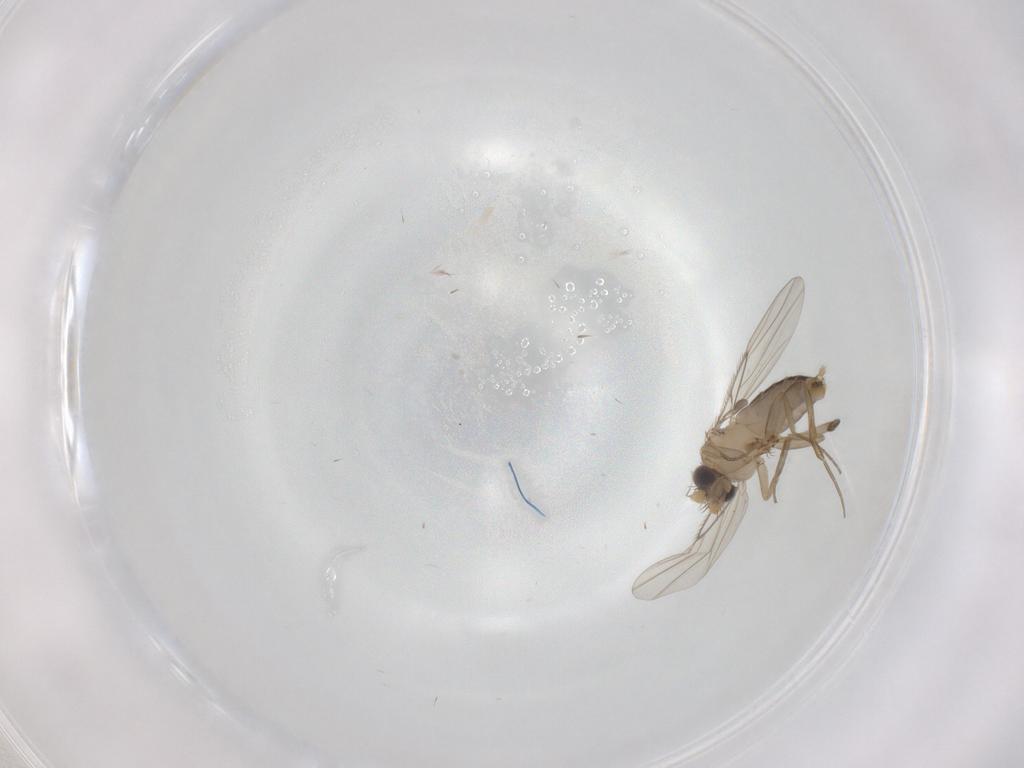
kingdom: Animalia
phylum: Arthropoda
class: Insecta
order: Diptera
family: Phoridae
